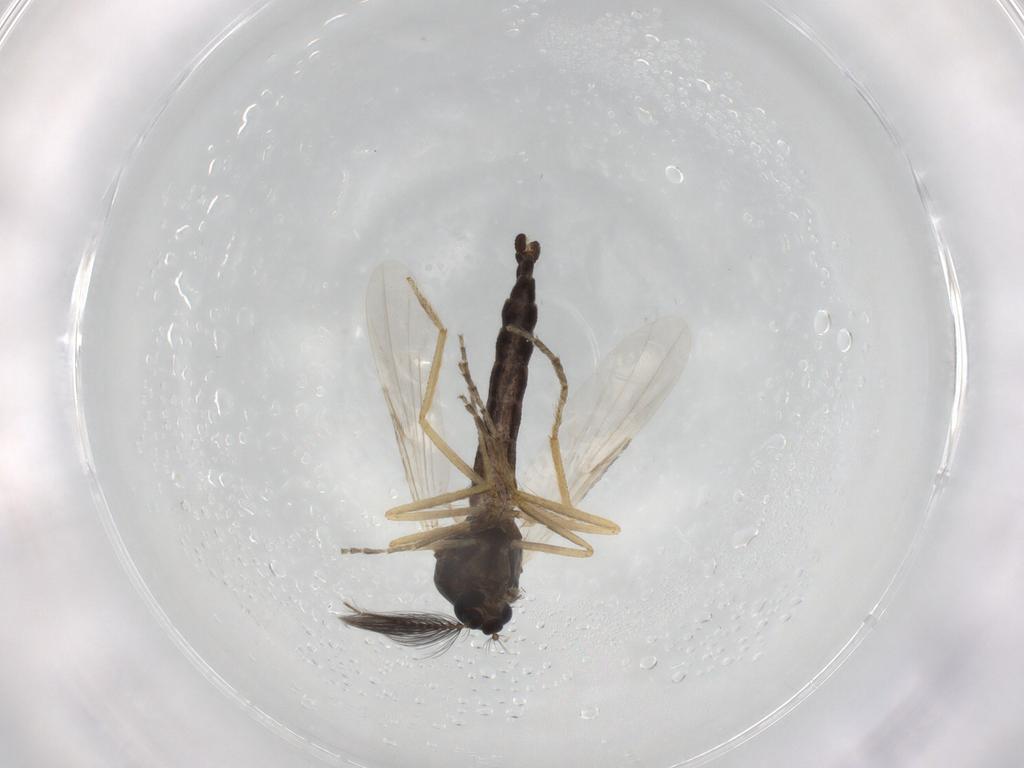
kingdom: Animalia
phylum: Arthropoda
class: Insecta
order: Diptera
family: Ceratopogonidae
